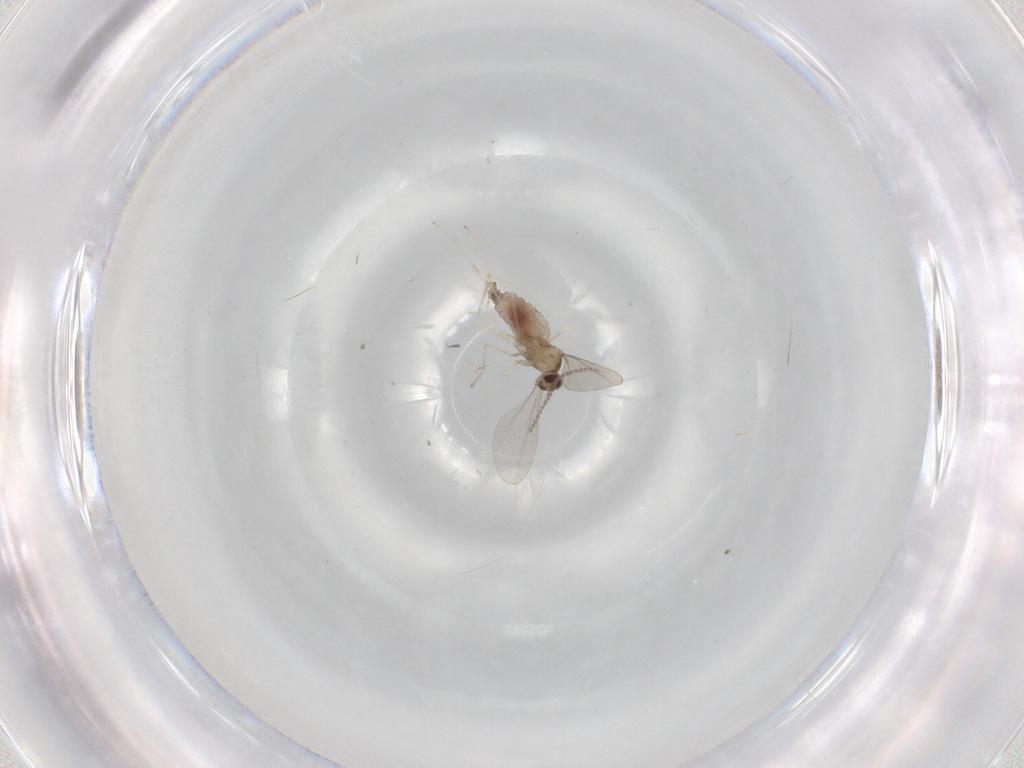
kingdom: Animalia
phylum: Arthropoda
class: Insecta
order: Diptera
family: Cecidomyiidae
